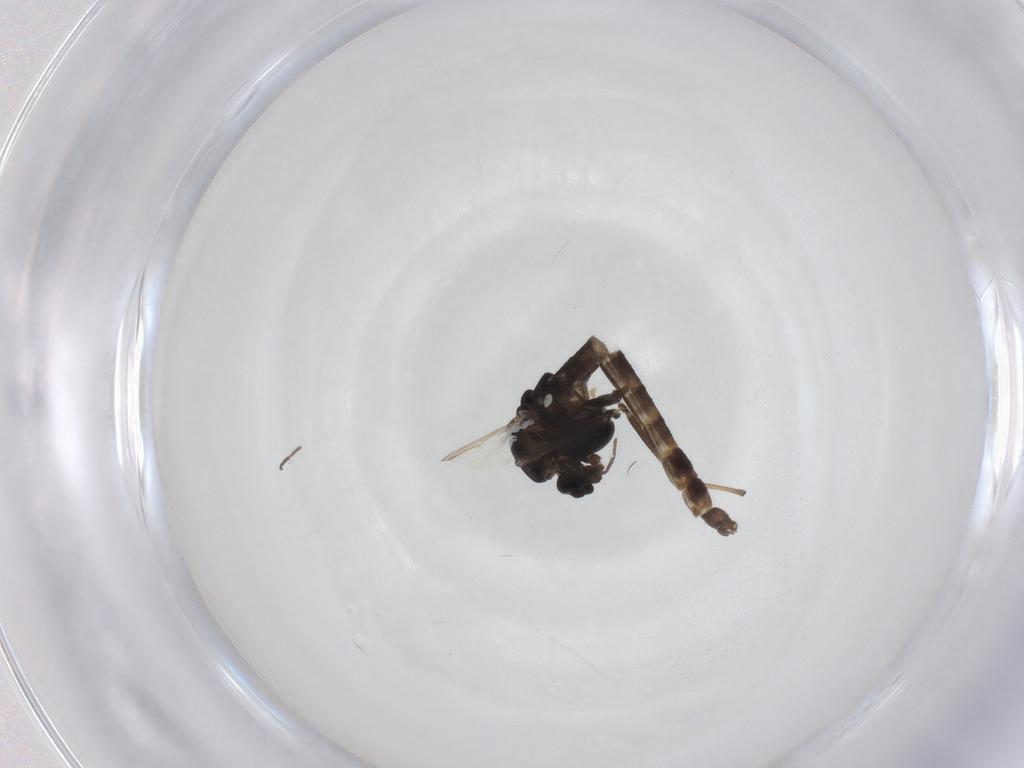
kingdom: Animalia
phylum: Arthropoda
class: Insecta
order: Diptera
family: Chironomidae
